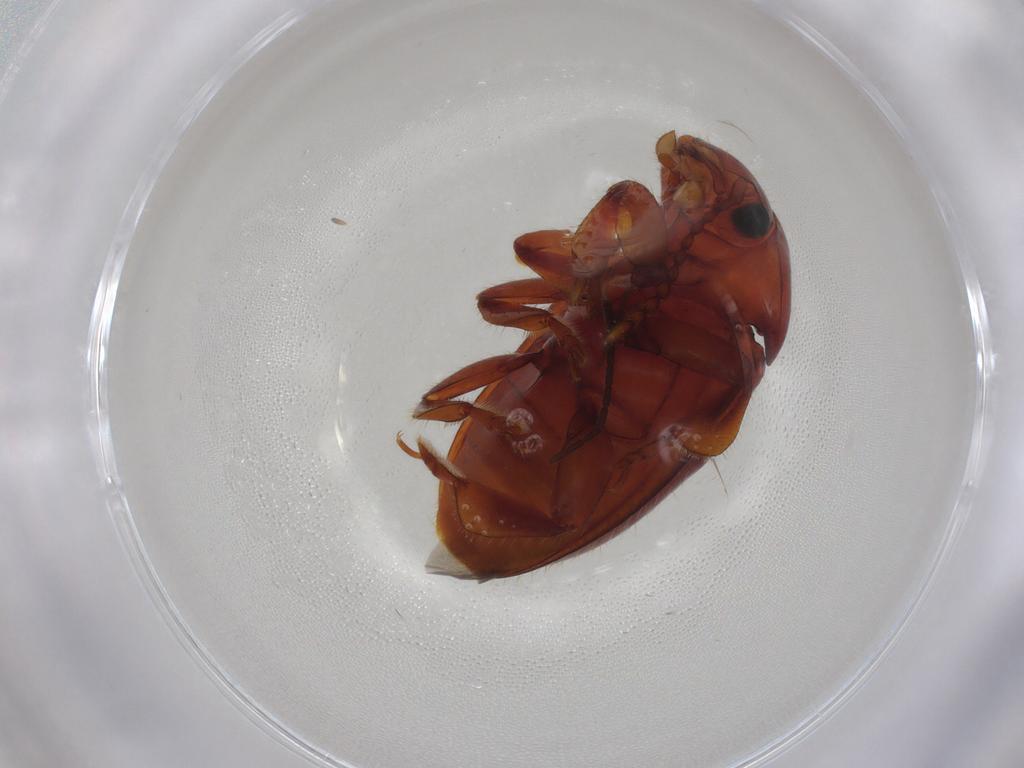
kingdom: Animalia
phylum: Arthropoda
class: Insecta
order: Coleoptera
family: Erotylidae
